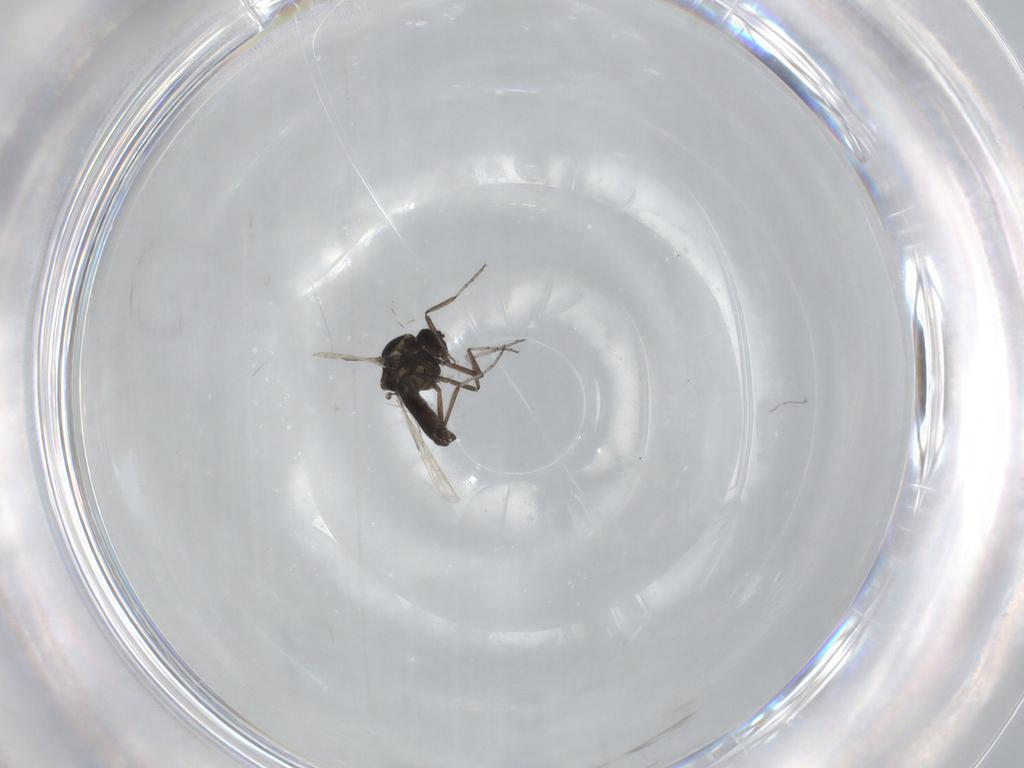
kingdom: Animalia
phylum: Arthropoda
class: Insecta
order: Diptera
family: Ceratopogonidae
